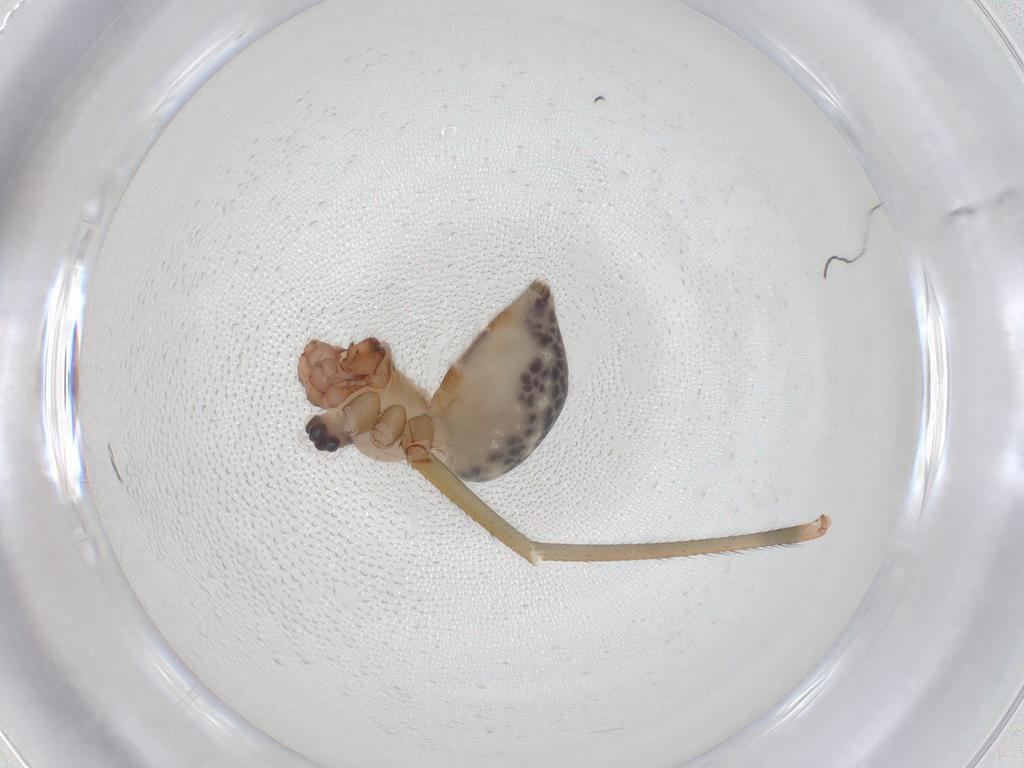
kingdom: Animalia
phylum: Arthropoda
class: Arachnida
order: Araneae
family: Pholcidae
